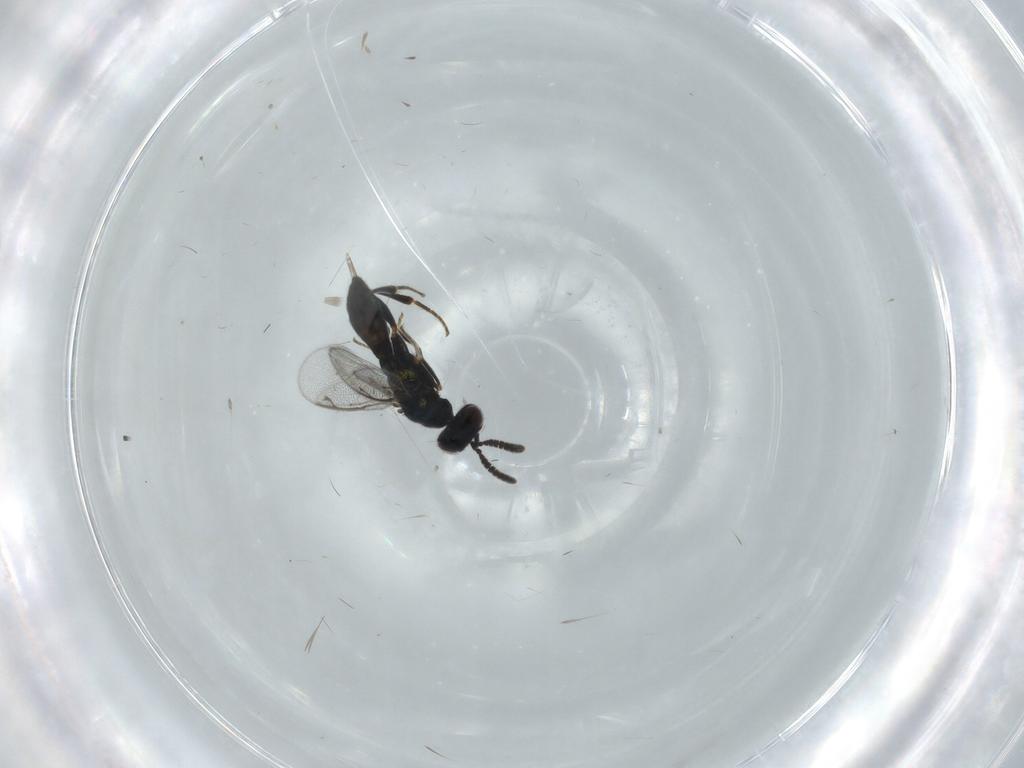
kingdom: Animalia
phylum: Arthropoda
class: Insecta
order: Hymenoptera
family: Cleonyminae
